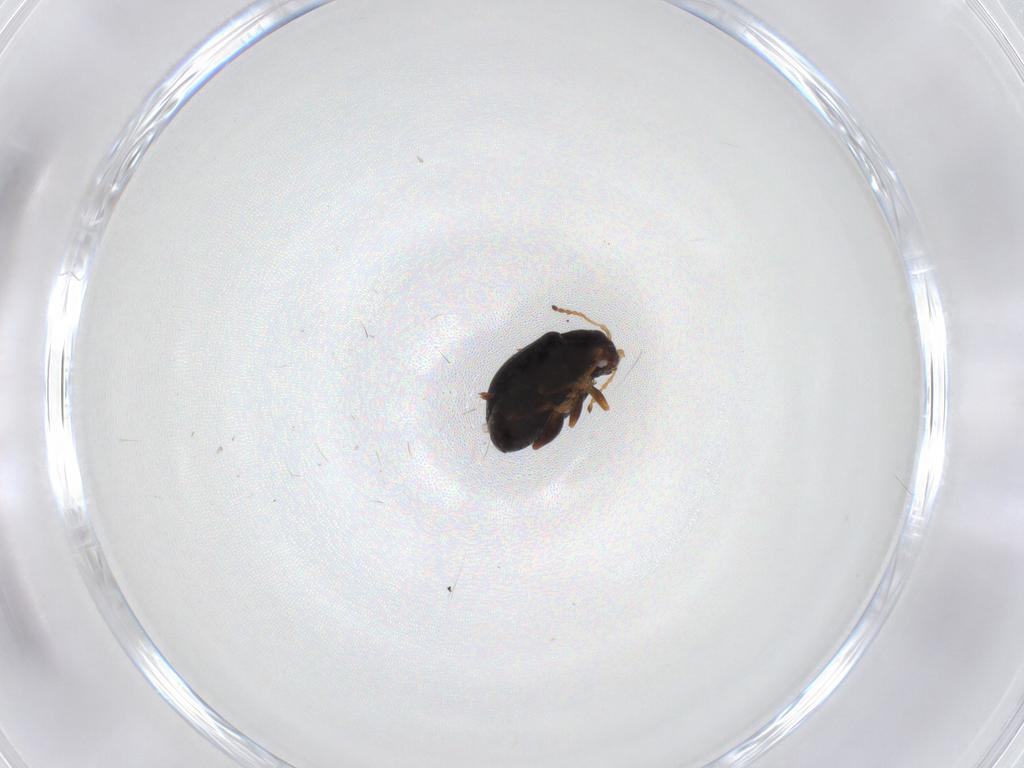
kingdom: Animalia
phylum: Arthropoda
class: Insecta
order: Coleoptera
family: Chrysomelidae
